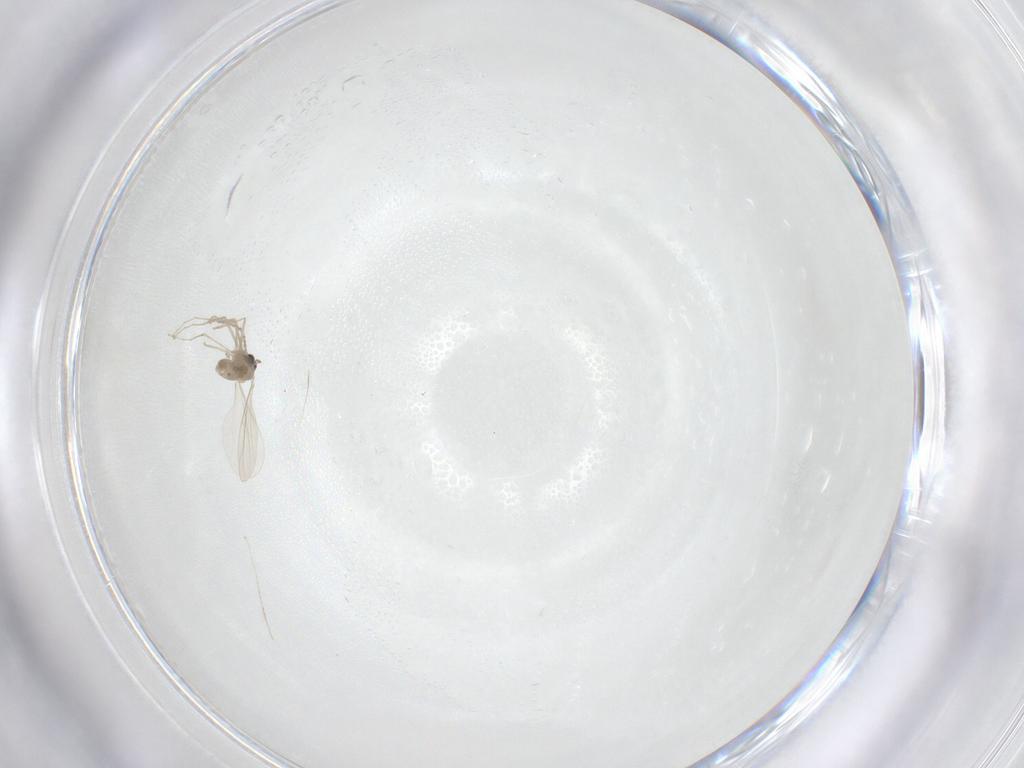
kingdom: Animalia
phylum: Arthropoda
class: Insecta
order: Diptera
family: Cecidomyiidae
